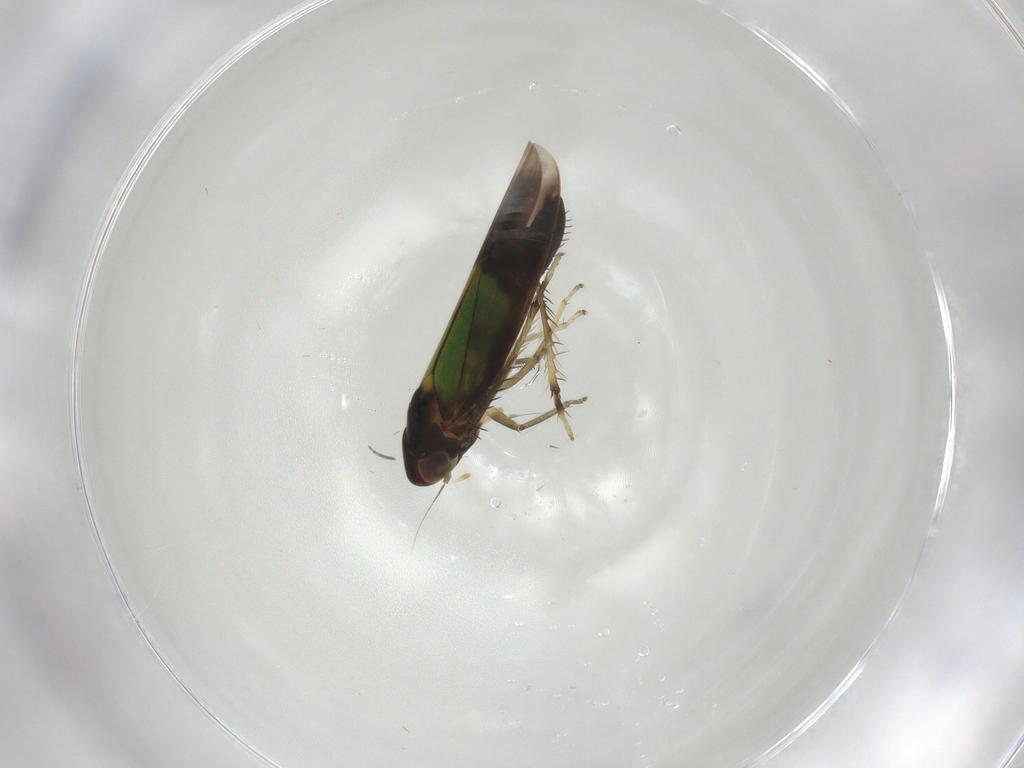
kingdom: Animalia
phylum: Arthropoda
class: Insecta
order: Hemiptera
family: Cicadellidae
